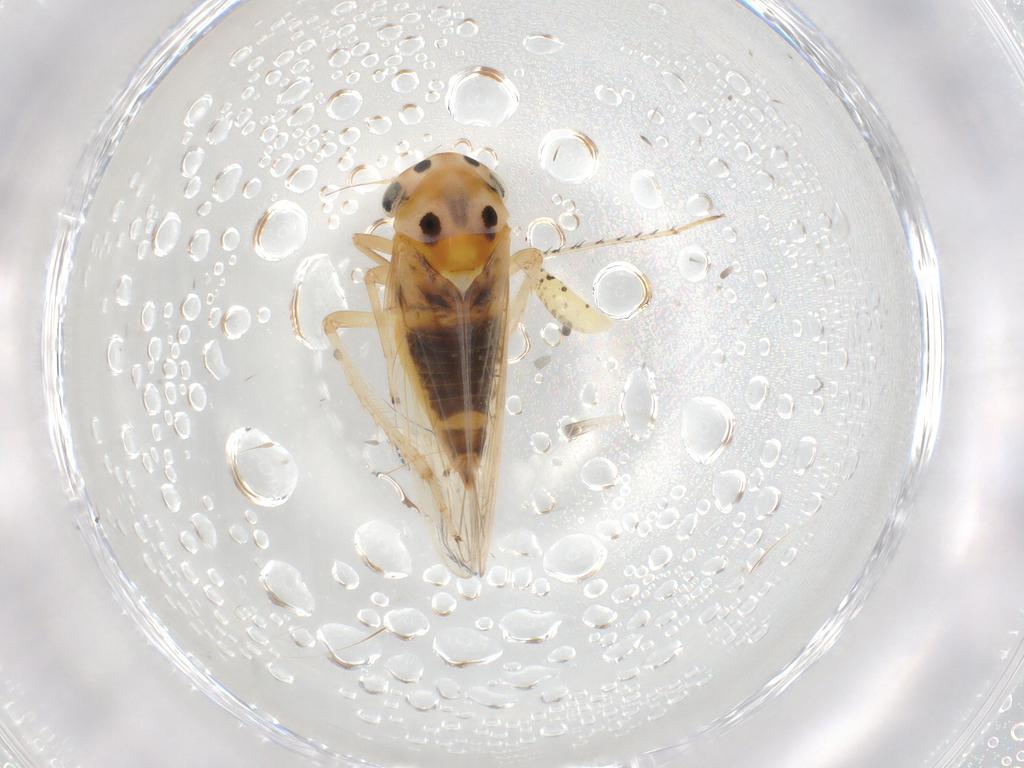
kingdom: Animalia
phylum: Arthropoda
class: Insecta
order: Hemiptera
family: Cicadellidae
